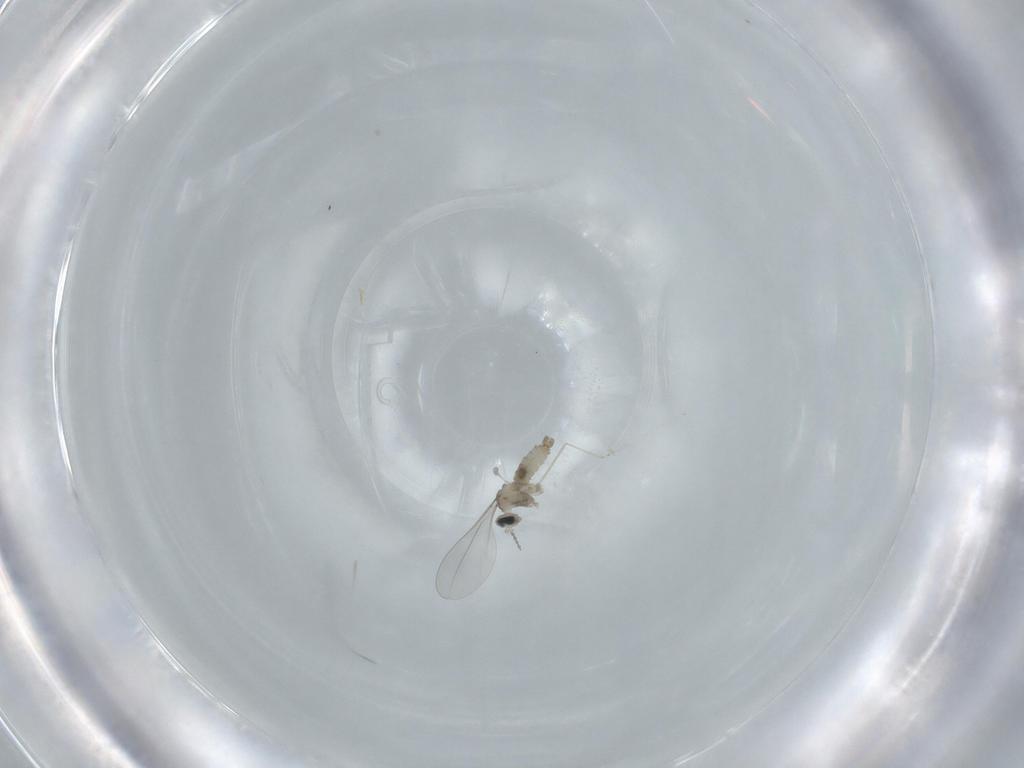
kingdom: Animalia
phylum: Arthropoda
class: Insecta
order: Diptera
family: Cecidomyiidae
